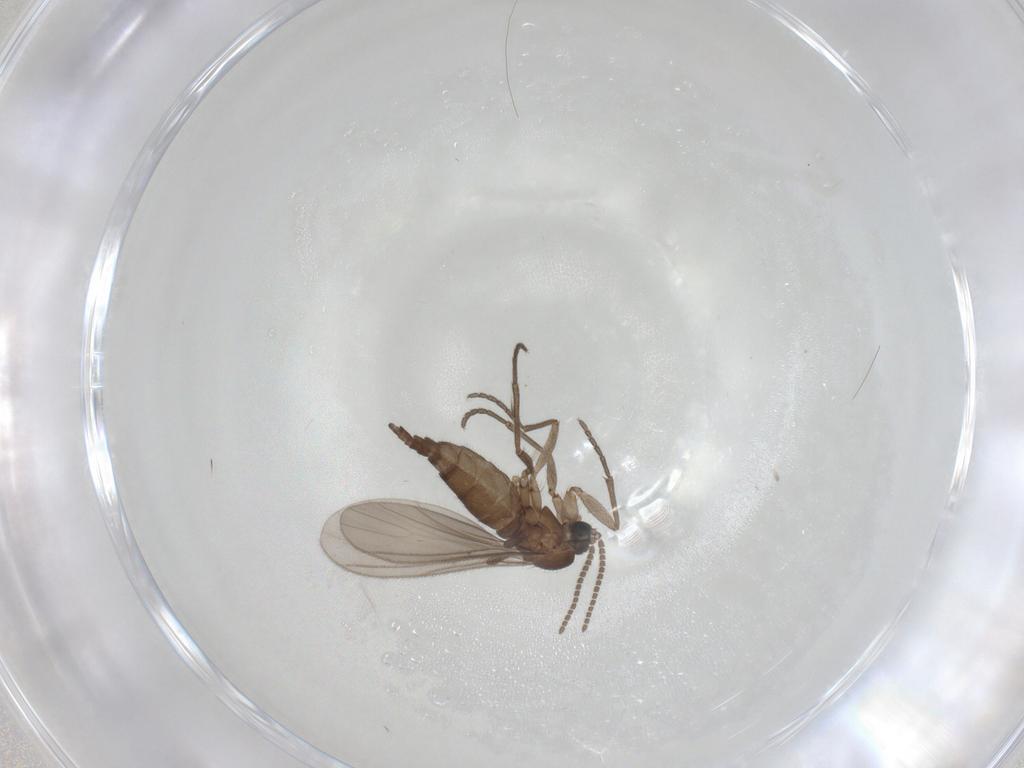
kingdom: Animalia
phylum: Arthropoda
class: Insecta
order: Diptera
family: Sciaridae
